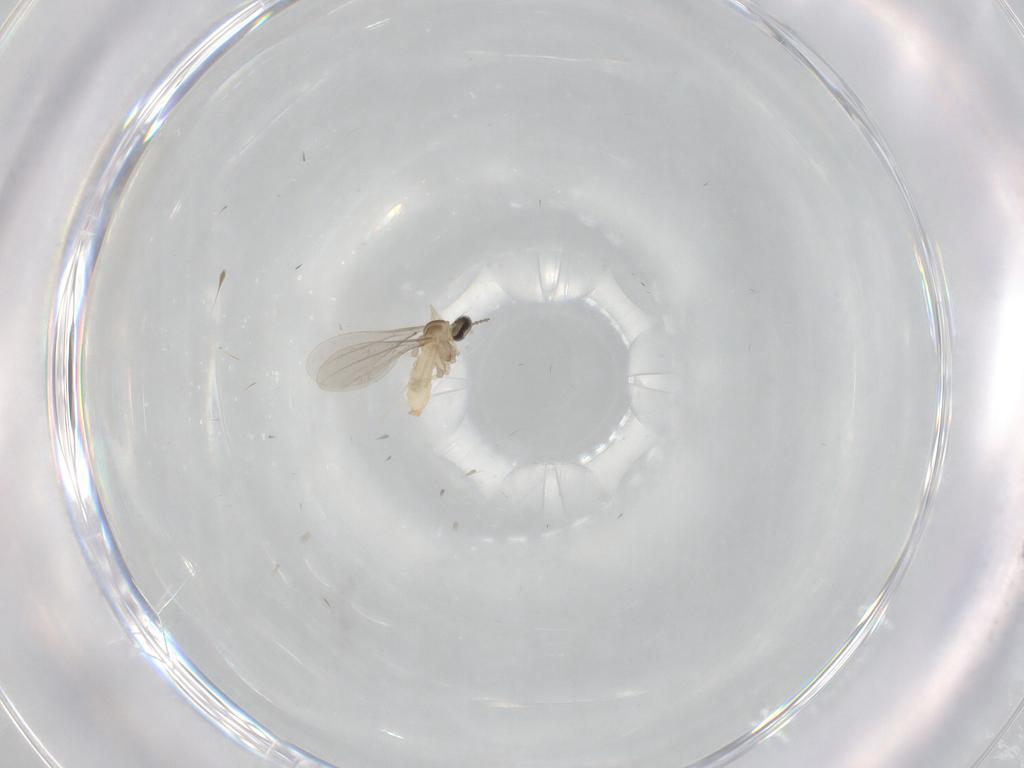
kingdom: Animalia
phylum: Arthropoda
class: Insecta
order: Diptera
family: Cecidomyiidae
